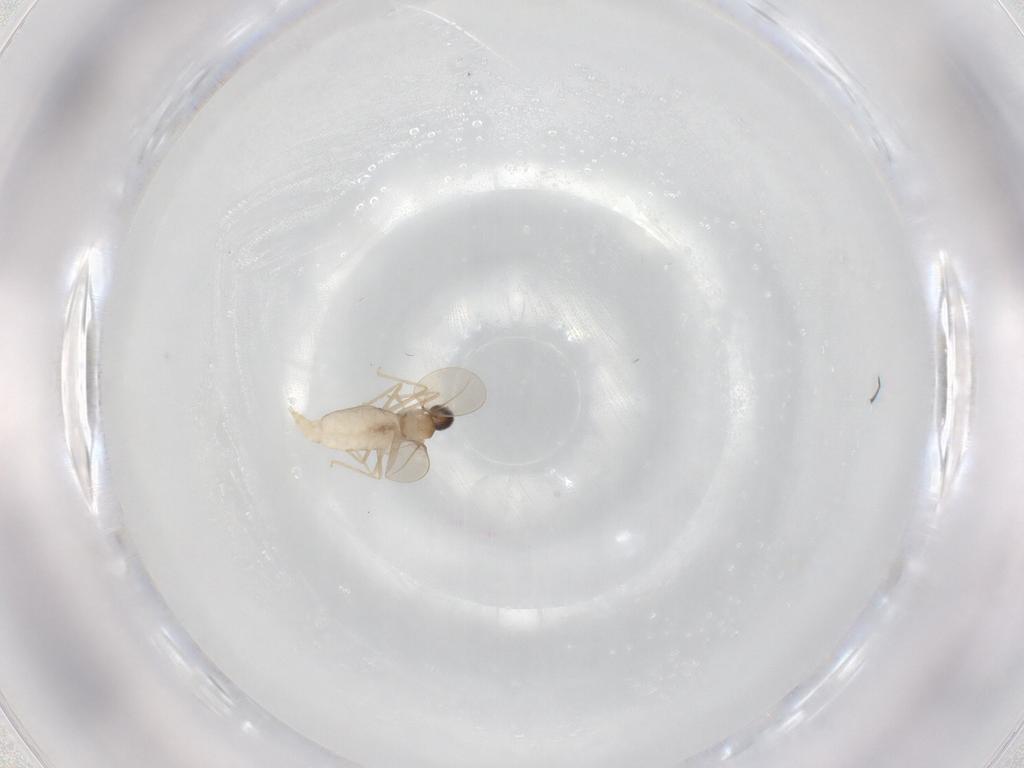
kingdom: Animalia
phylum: Arthropoda
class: Insecta
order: Diptera
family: Cecidomyiidae
